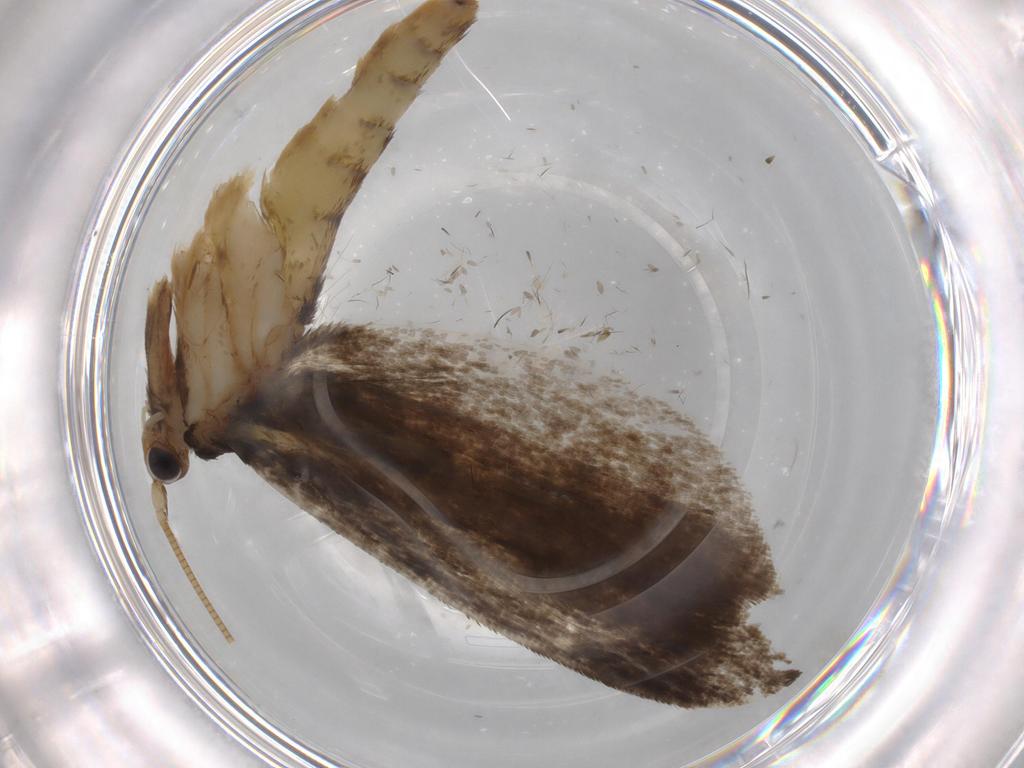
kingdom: Animalia
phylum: Arthropoda
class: Insecta
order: Lepidoptera
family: Tineidae
